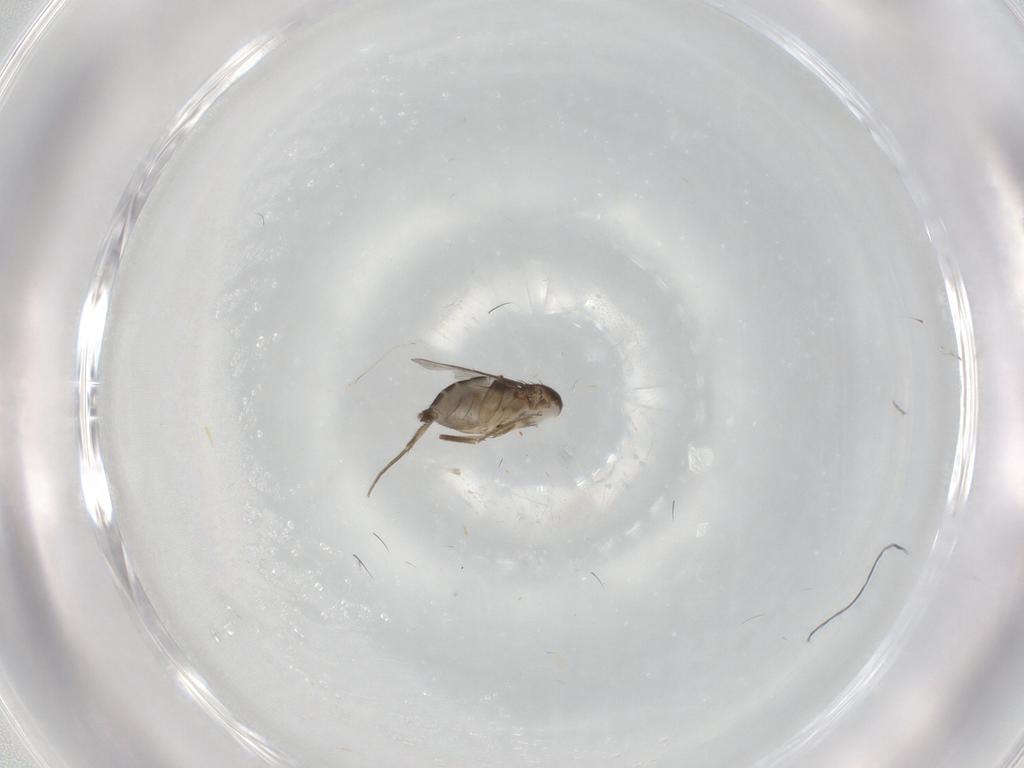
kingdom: Animalia
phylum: Arthropoda
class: Insecta
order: Diptera
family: Phoridae
